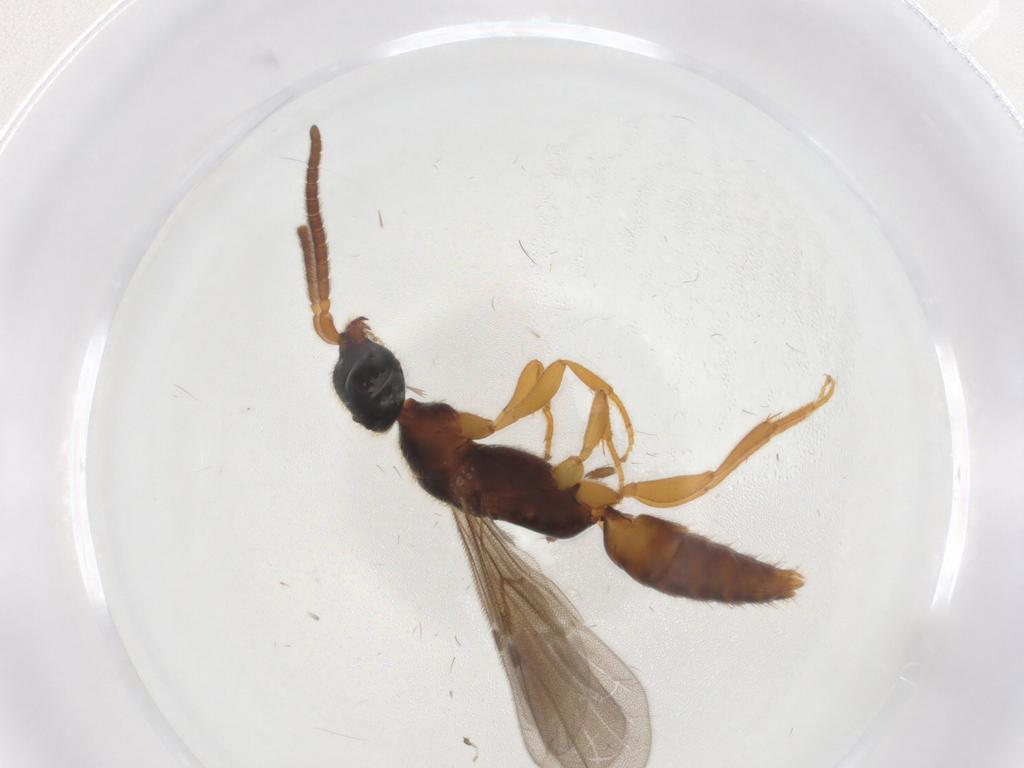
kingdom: Animalia
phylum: Arthropoda
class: Insecta
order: Hymenoptera
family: Bethylidae
